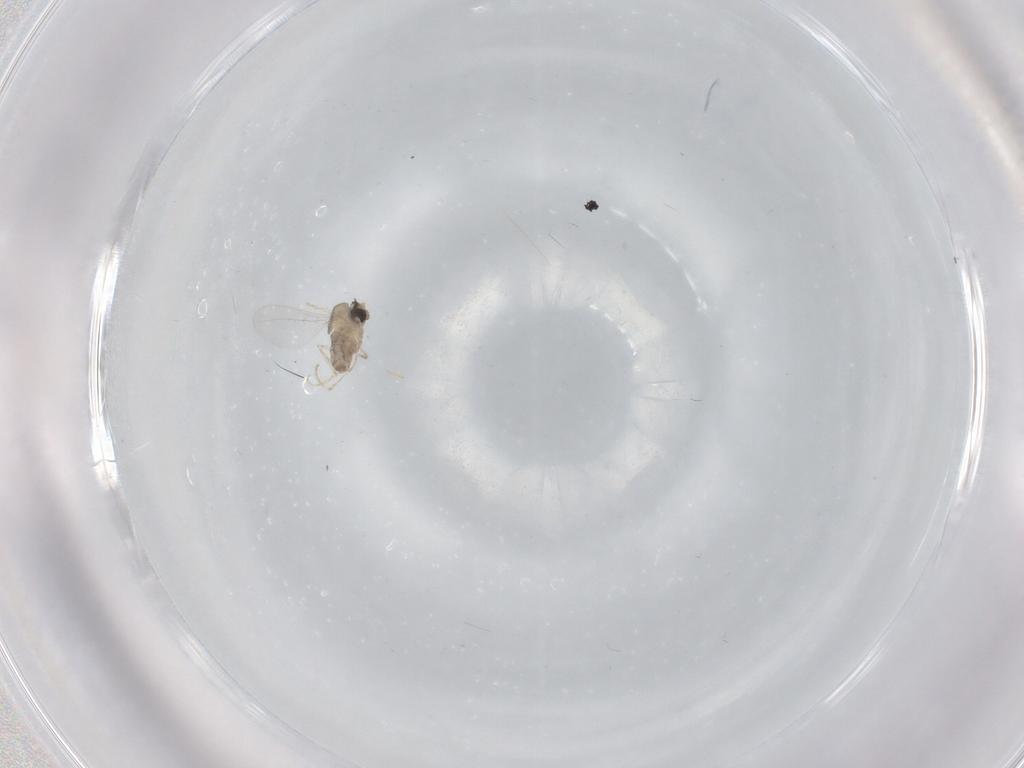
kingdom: Animalia
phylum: Arthropoda
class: Insecta
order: Diptera
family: Cecidomyiidae
